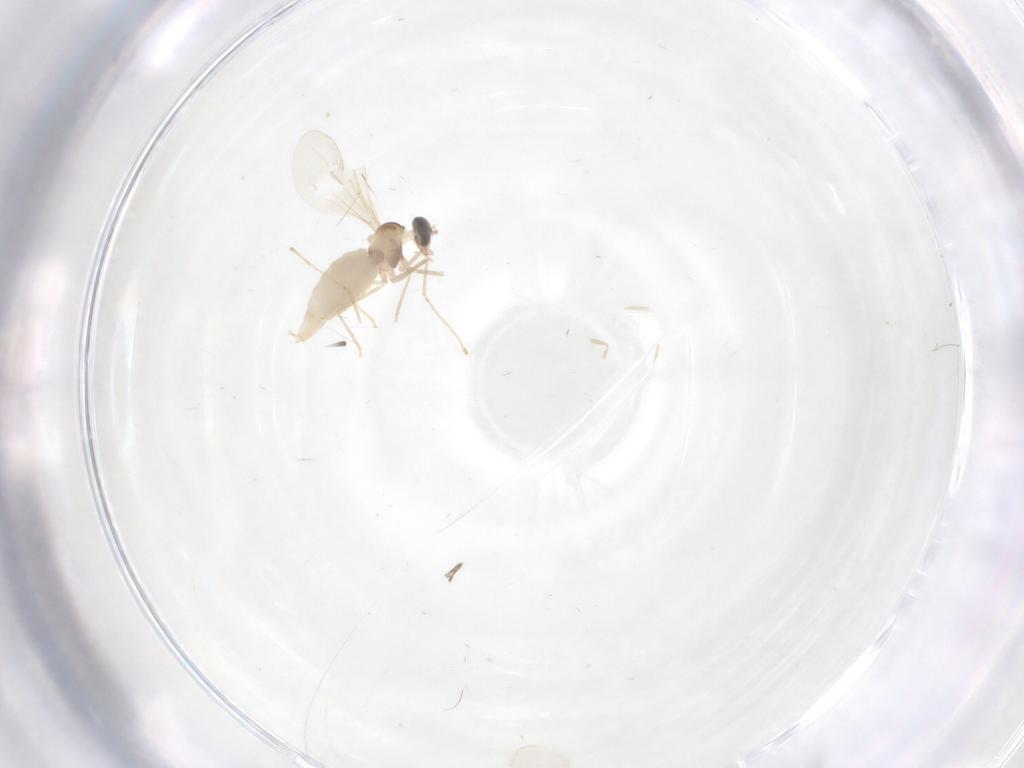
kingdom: Animalia
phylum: Arthropoda
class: Insecta
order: Diptera
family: Cecidomyiidae
